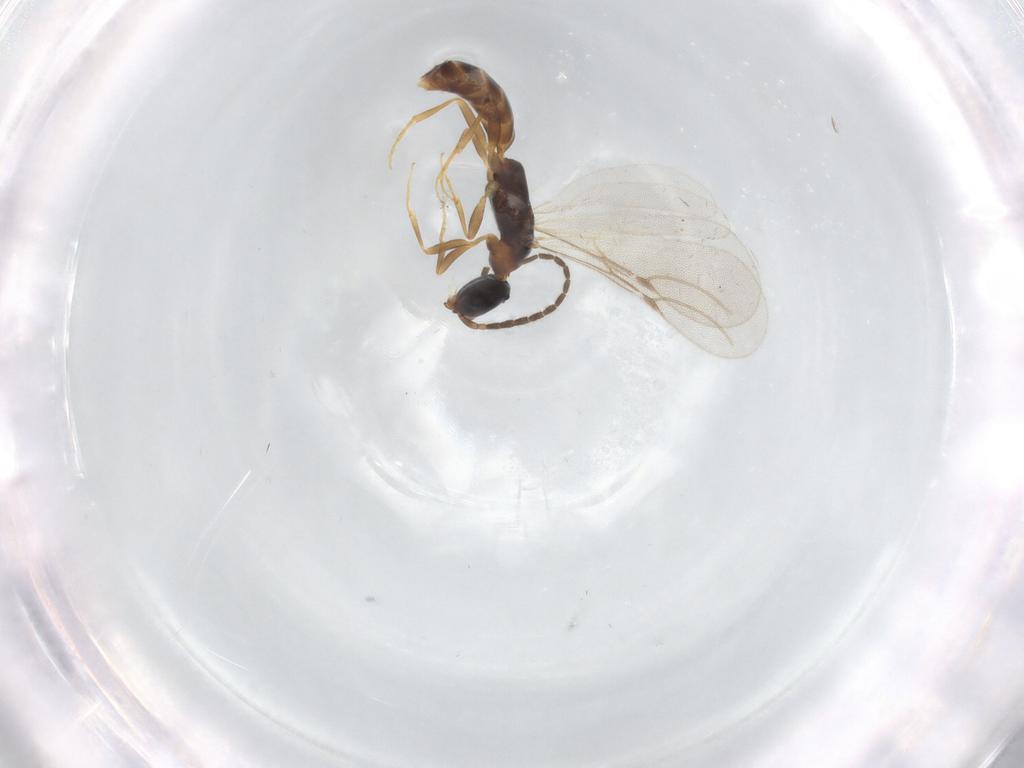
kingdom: Animalia
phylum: Arthropoda
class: Insecta
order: Hymenoptera
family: Bethylidae
